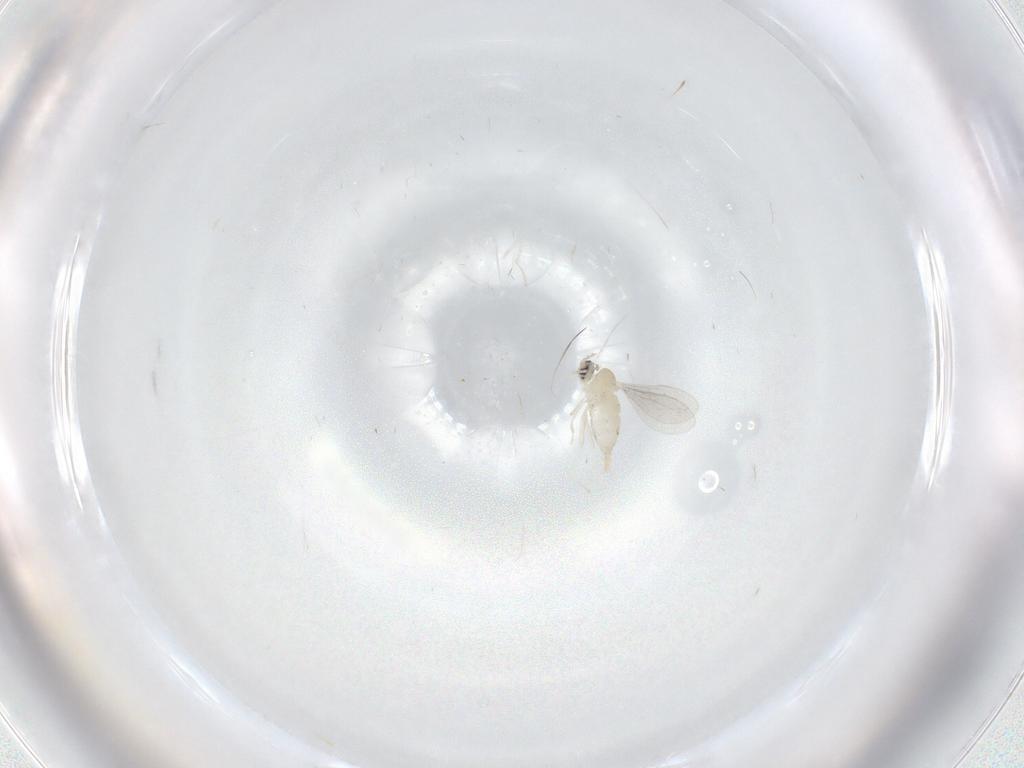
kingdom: Animalia
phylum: Arthropoda
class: Insecta
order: Diptera
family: Cecidomyiidae
